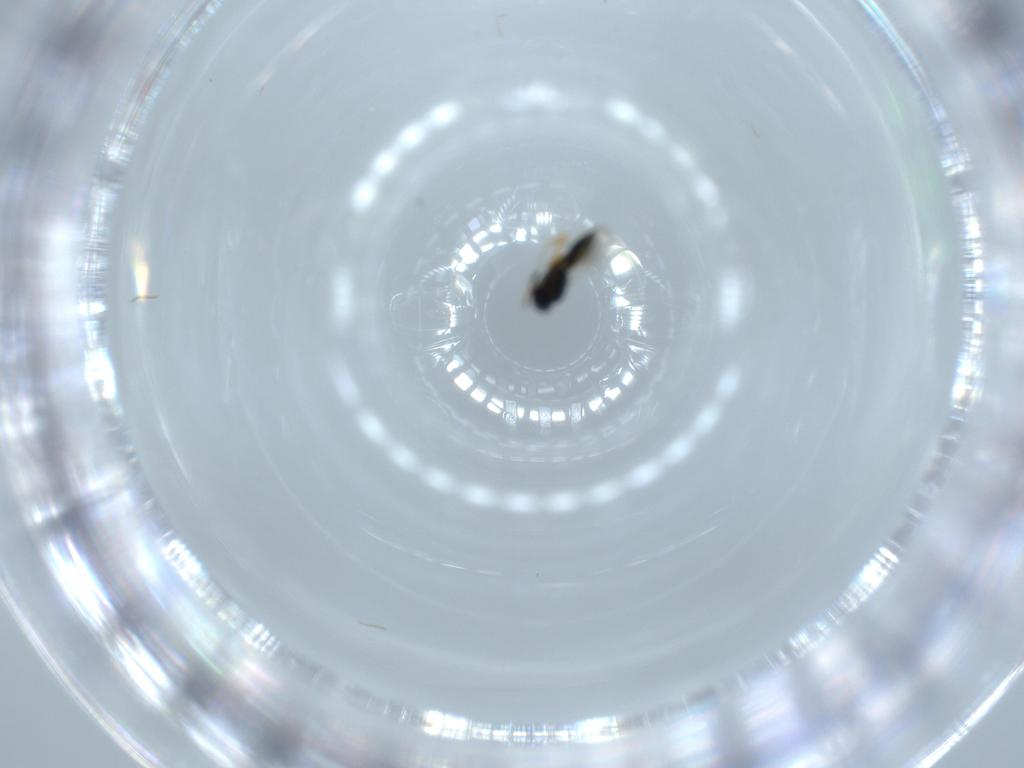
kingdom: Animalia
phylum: Arthropoda
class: Insecta
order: Hymenoptera
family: Scelionidae
